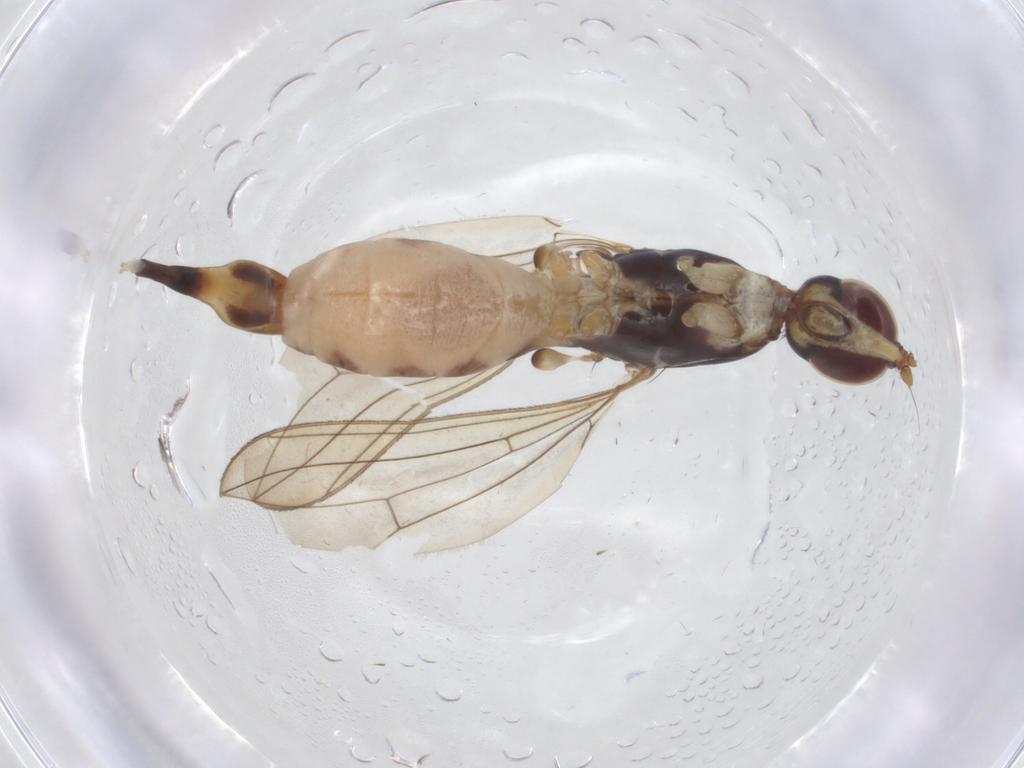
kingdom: Animalia
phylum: Arthropoda
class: Insecta
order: Diptera
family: Micropezidae
